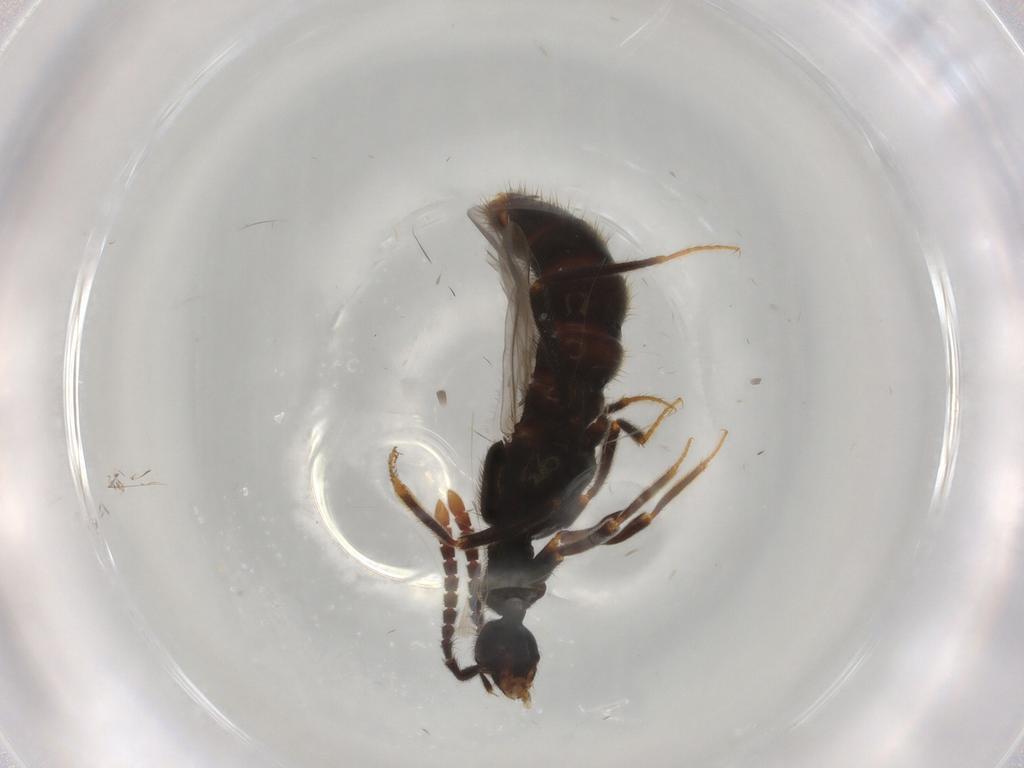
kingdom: Animalia
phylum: Arthropoda
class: Insecta
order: Coleoptera
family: Staphylinidae
